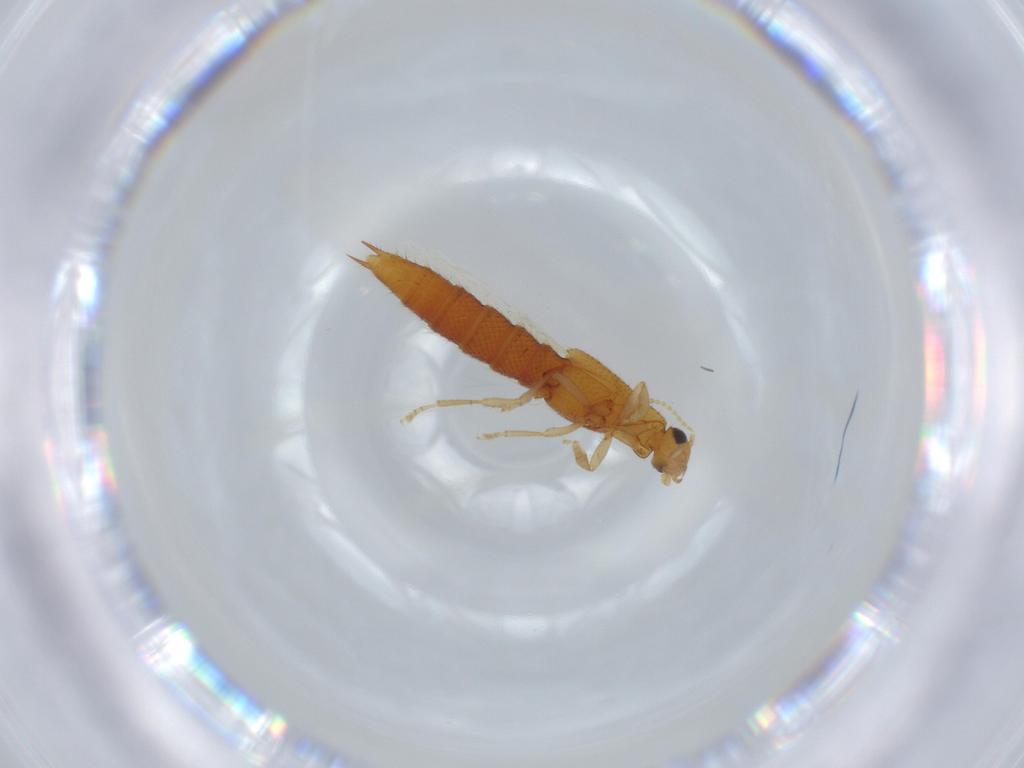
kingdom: Animalia
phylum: Arthropoda
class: Insecta
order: Coleoptera
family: Staphylinidae
